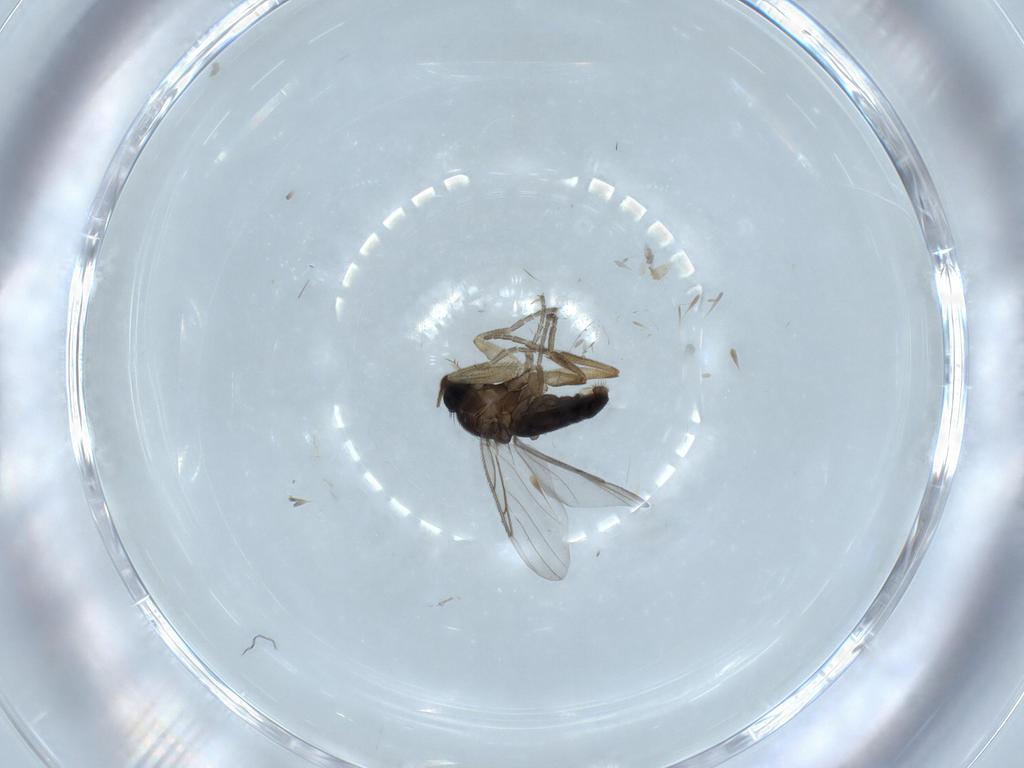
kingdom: Animalia
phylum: Arthropoda
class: Insecta
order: Diptera
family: Phoridae
